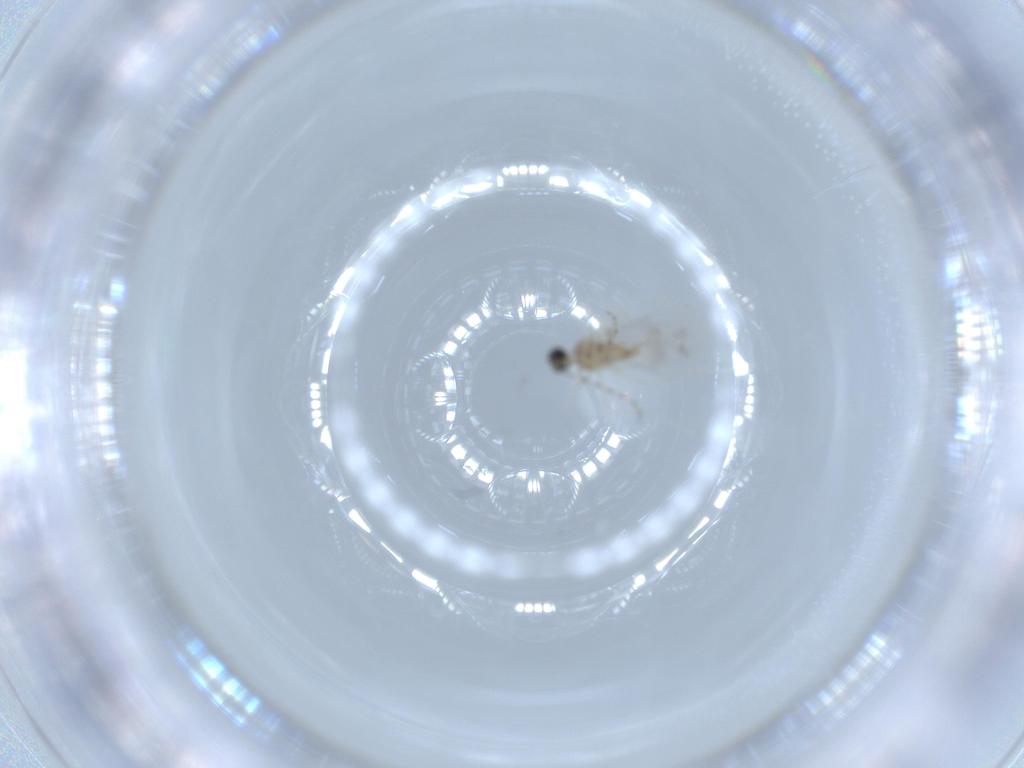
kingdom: Animalia
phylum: Arthropoda
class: Insecta
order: Diptera
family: Cecidomyiidae
